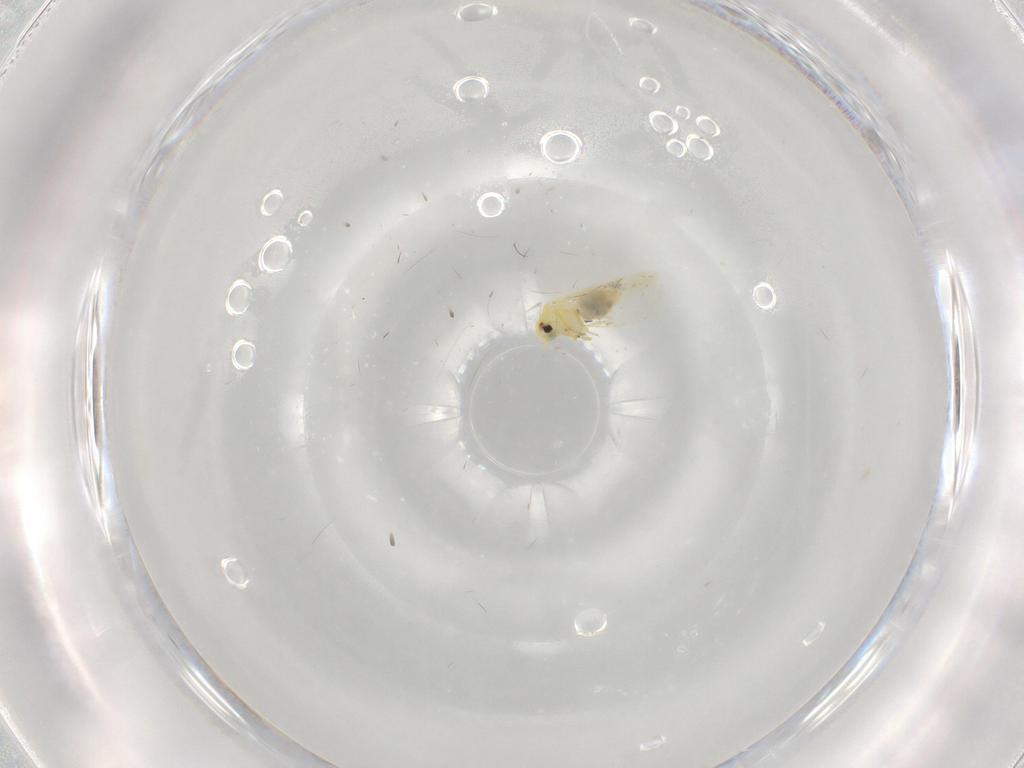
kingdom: Animalia
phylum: Arthropoda
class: Insecta
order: Hemiptera
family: Aleyrodidae
